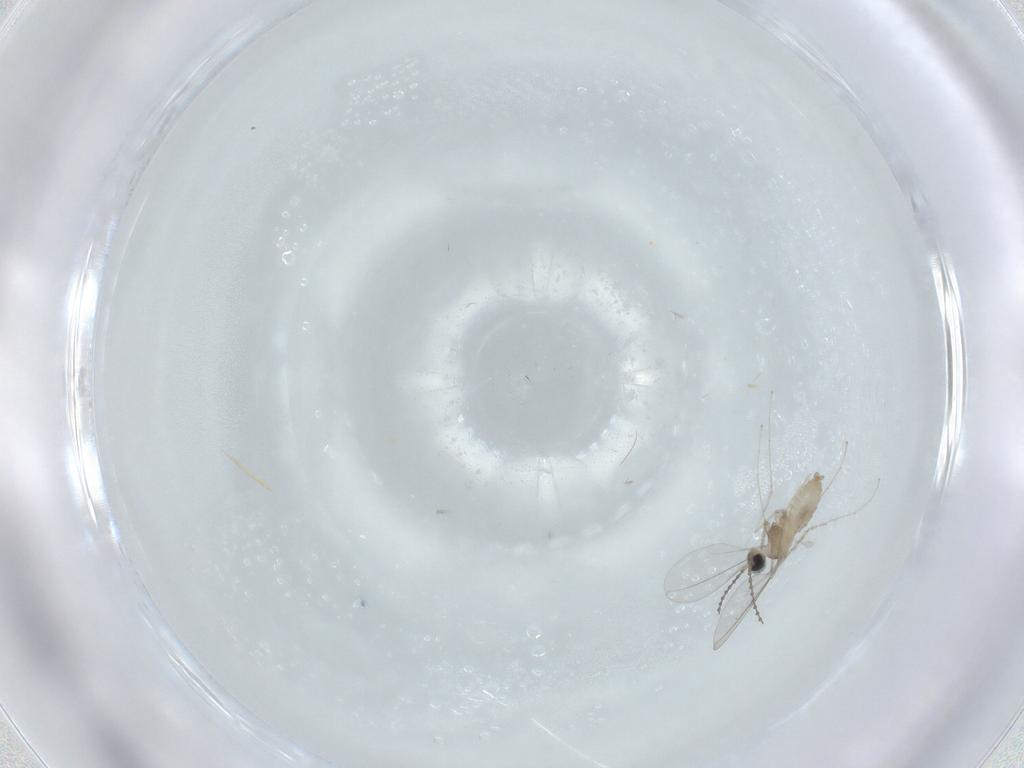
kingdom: Animalia
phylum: Arthropoda
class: Insecta
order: Diptera
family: Cecidomyiidae
